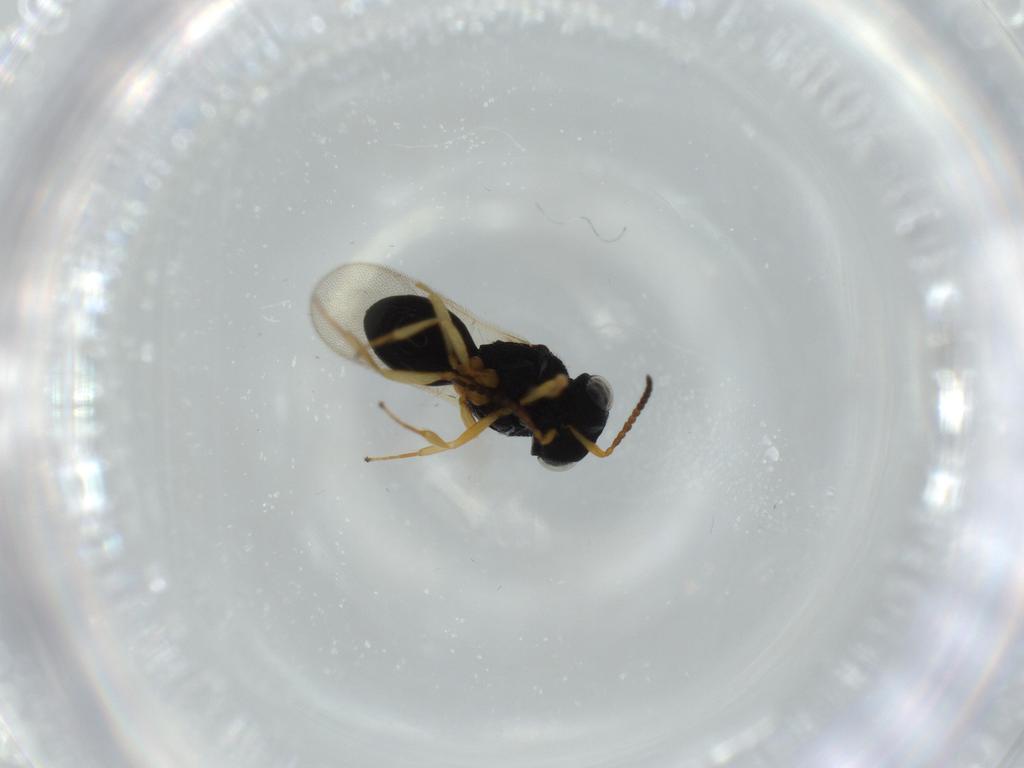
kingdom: Animalia
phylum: Arthropoda
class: Insecta
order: Hymenoptera
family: Scelionidae
